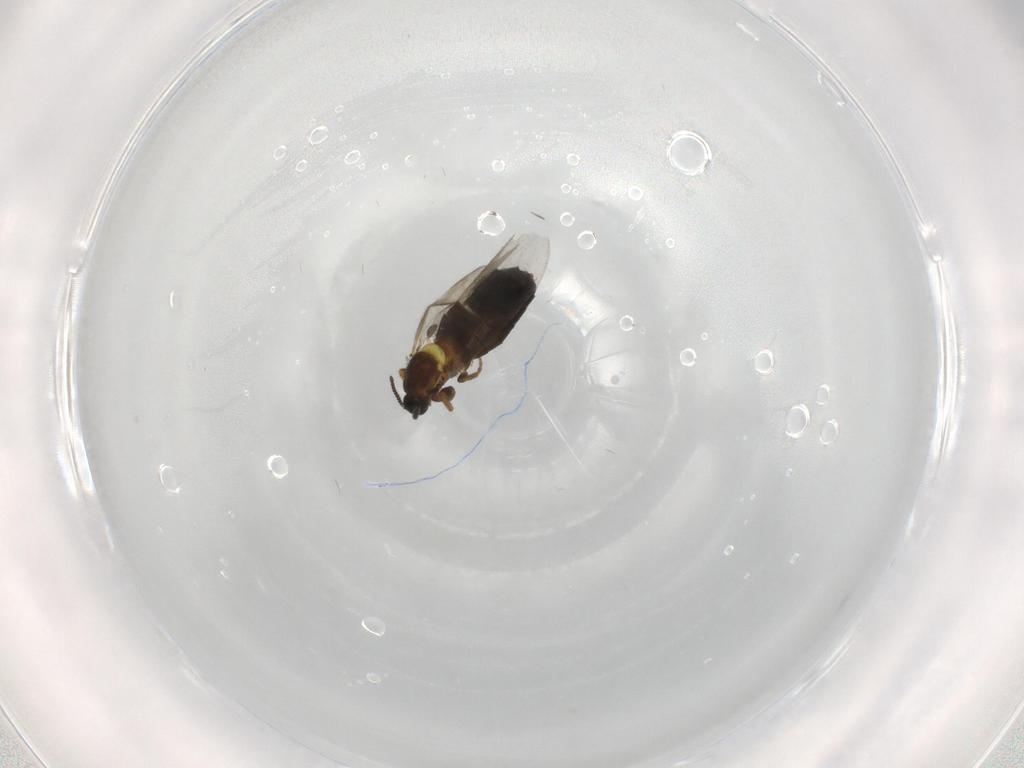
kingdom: Animalia
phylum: Arthropoda
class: Insecta
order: Diptera
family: Scatopsidae
